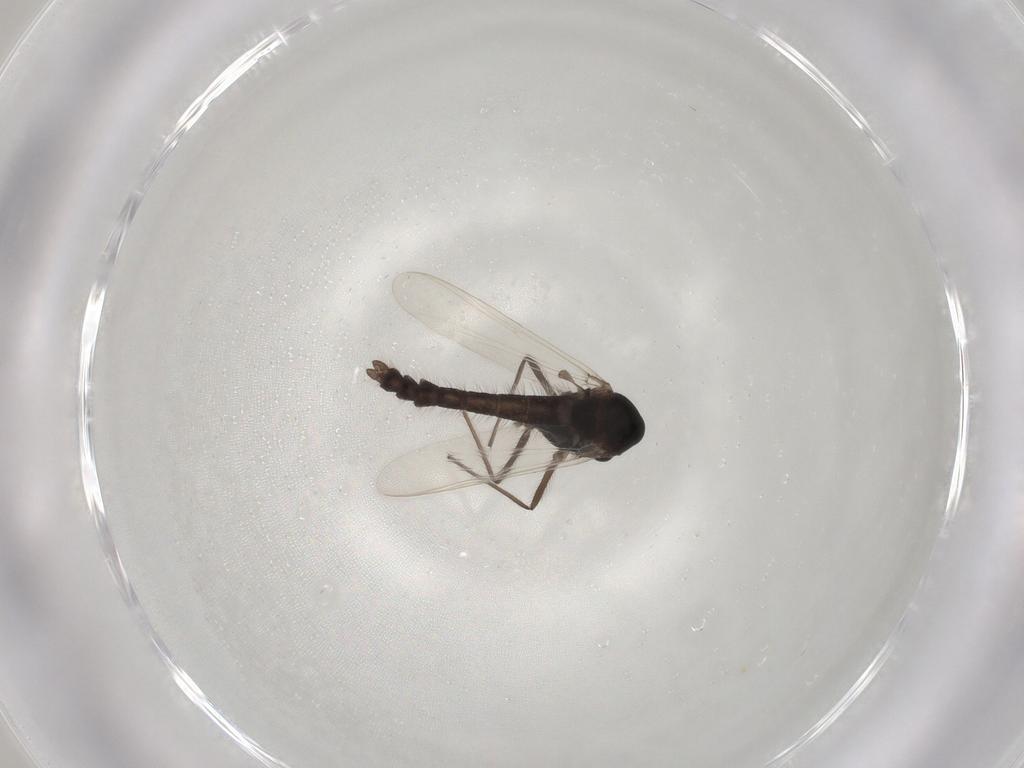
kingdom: Animalia
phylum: Arthropoda
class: Insecta
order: Diptera
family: Chironomidae
